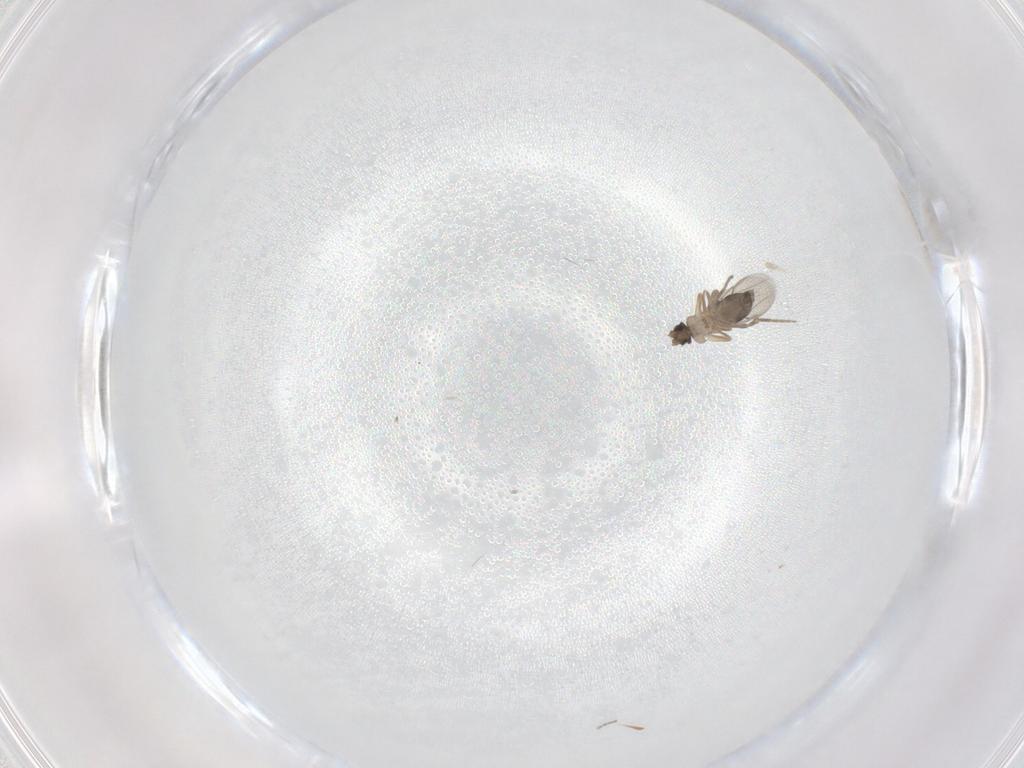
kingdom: Animalia
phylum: Arthropoda
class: Insecta
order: Diptera
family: Phoridae
